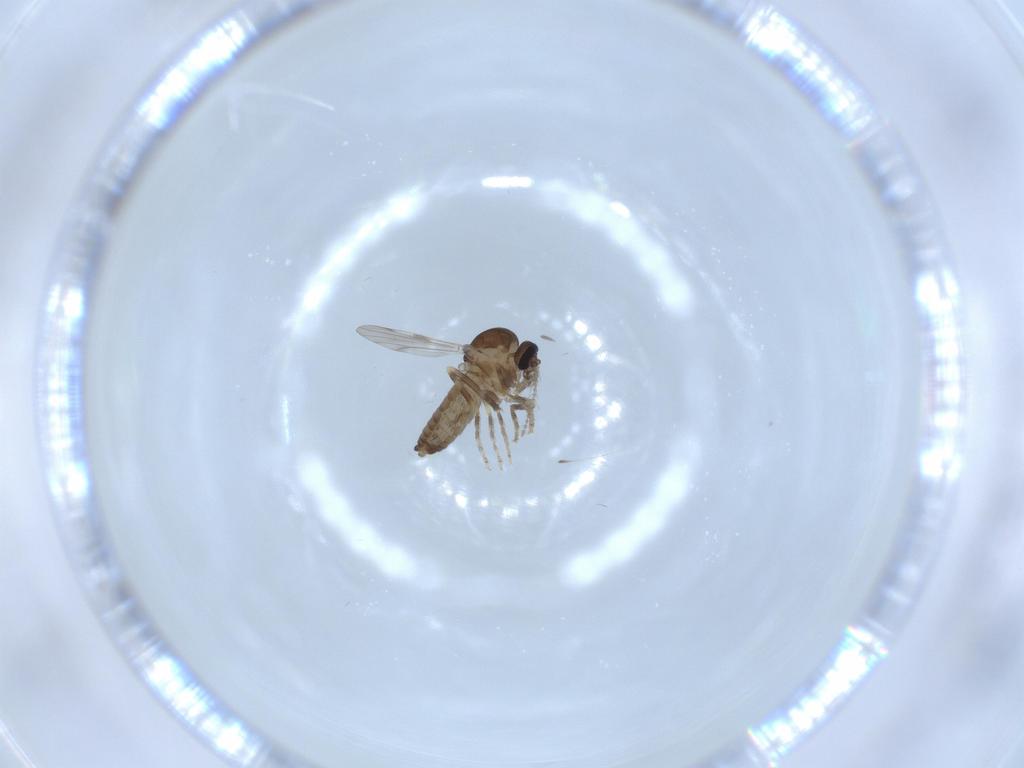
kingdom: Animalia
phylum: Arthropoda
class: Insecta
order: Diptera
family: Ceratopogonidae
